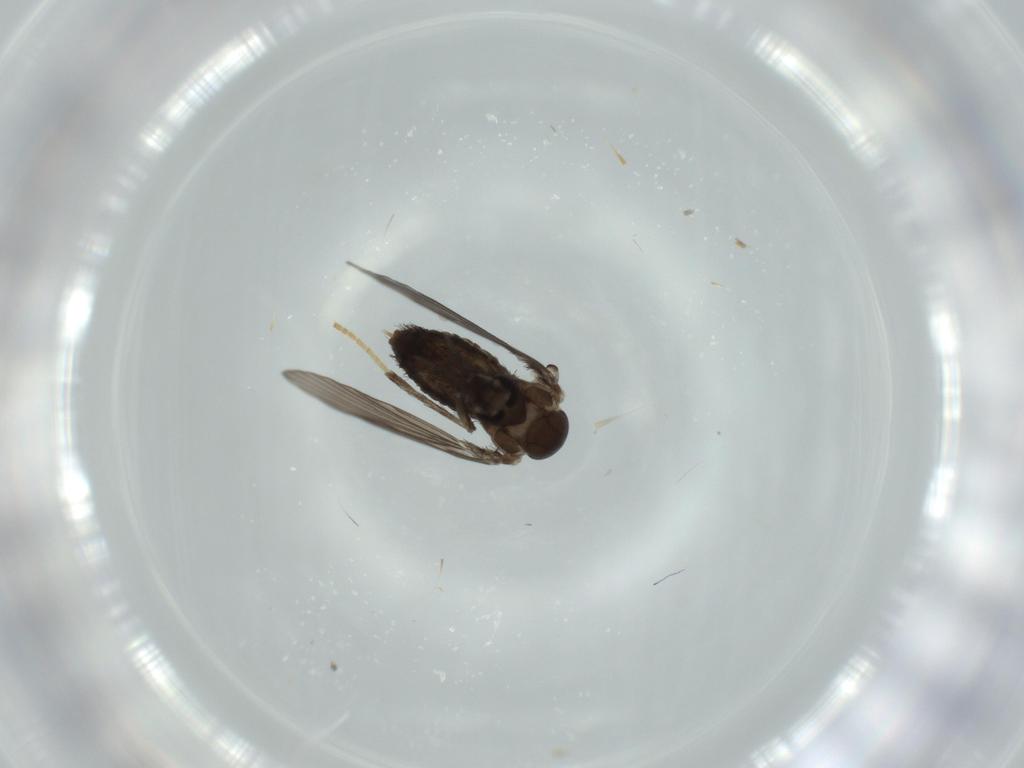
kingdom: Animalia
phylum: Arthropoda
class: Insecta
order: Diptera
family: Psychodidae
